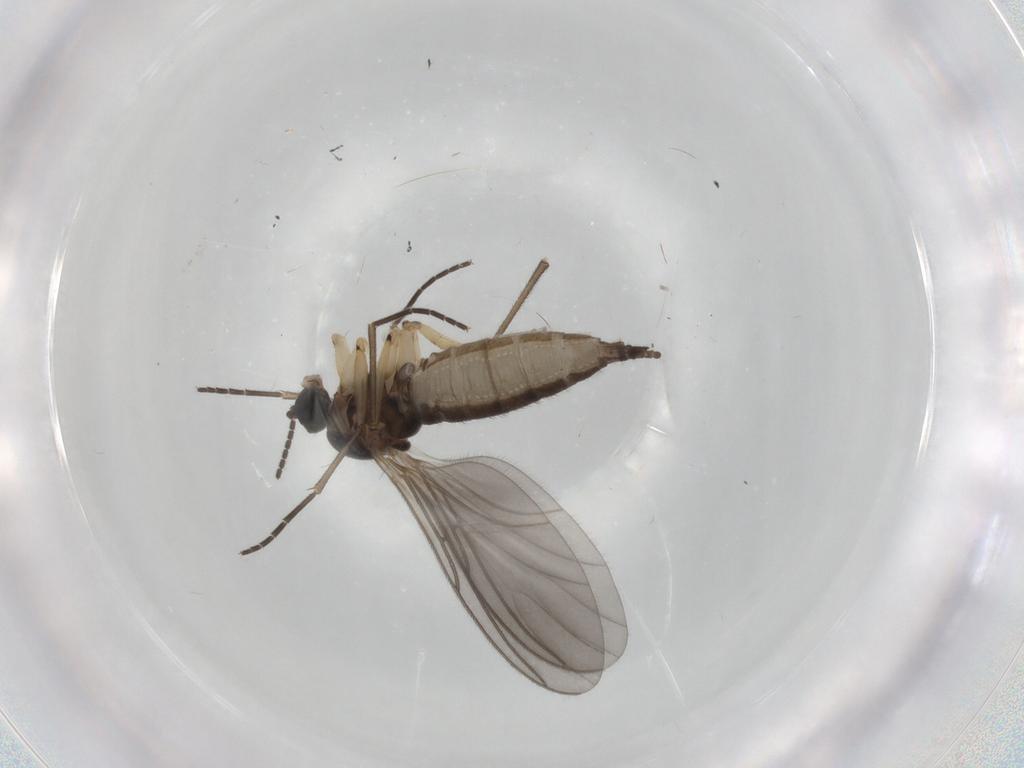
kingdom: Animalia
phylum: Arthropoda
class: Insecta
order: Diptera
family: Sciaridae
